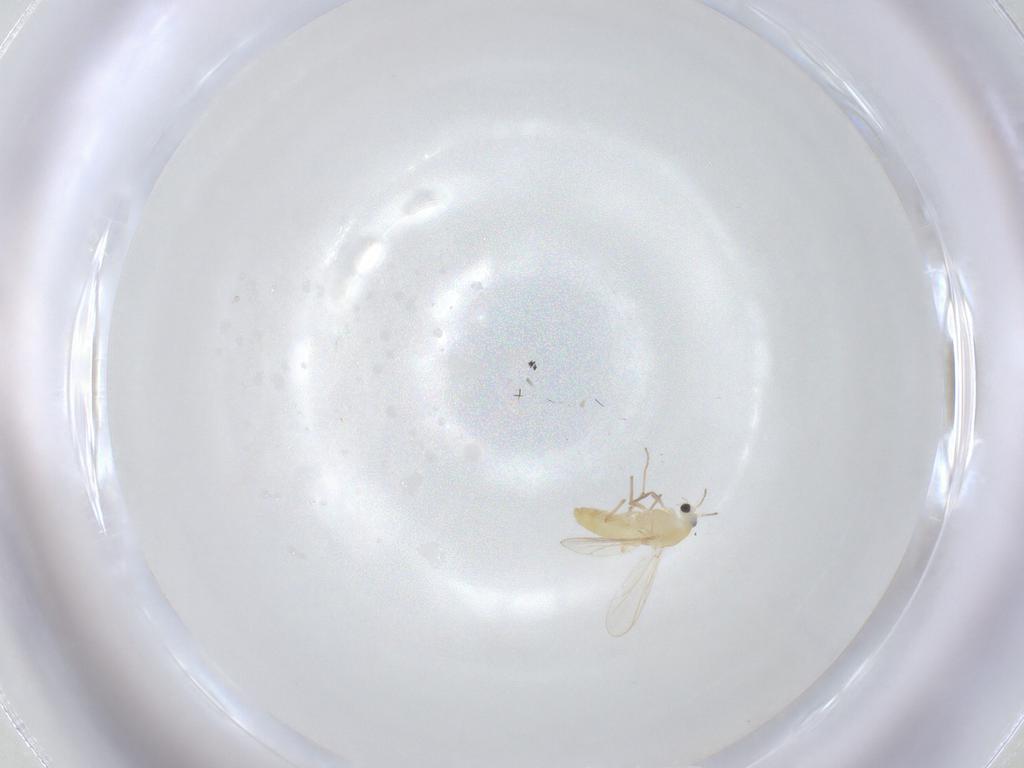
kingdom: Animalia
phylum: Arthropoda
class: Insecta
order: Diptera
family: Chironomidae
